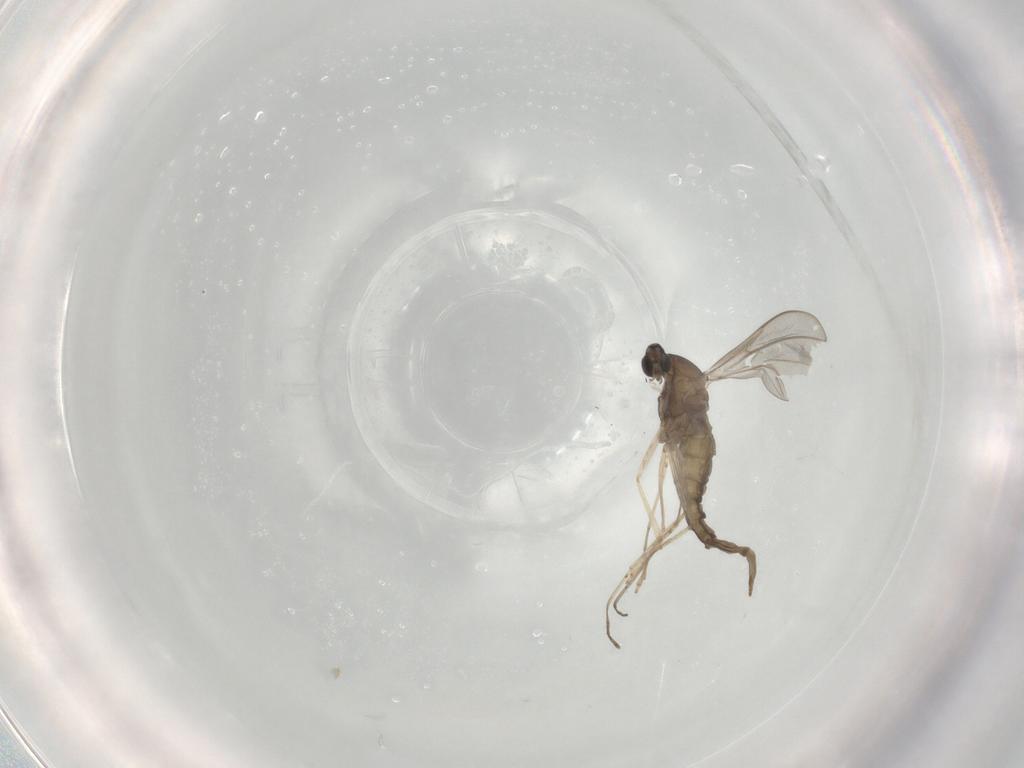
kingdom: Animalia
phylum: Arthropoda
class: Insecta
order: Diptera
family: Cecidomyiidae
